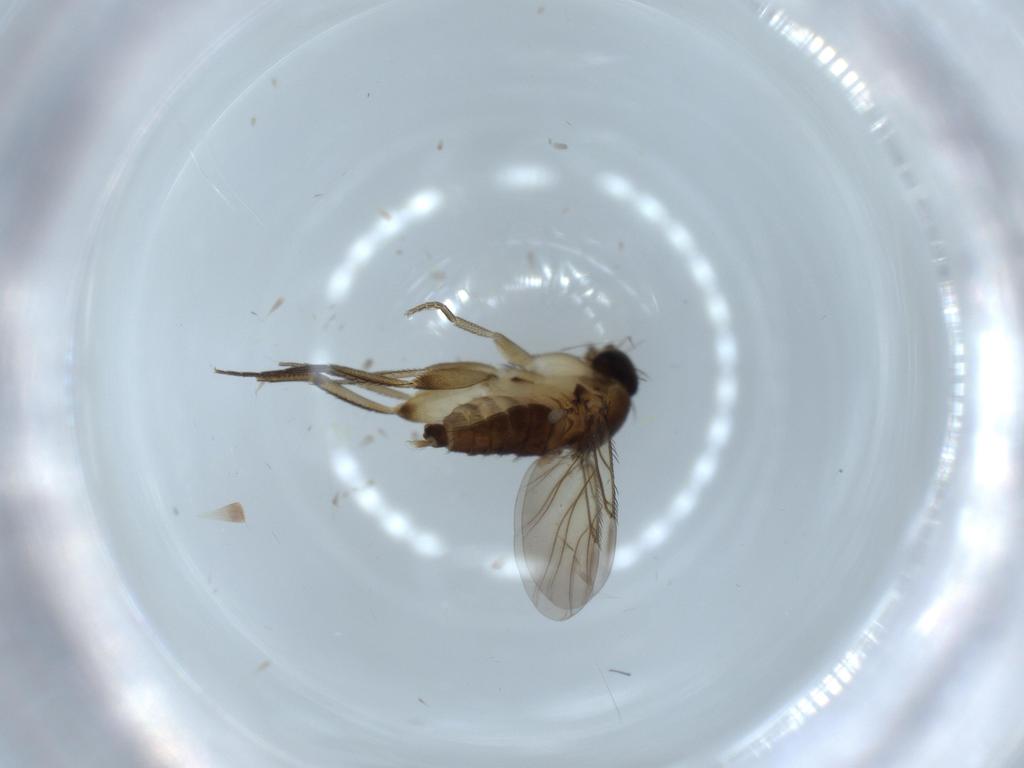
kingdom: Animalia
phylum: Arthropoda
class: Insecta
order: Diptera
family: Phoridae
